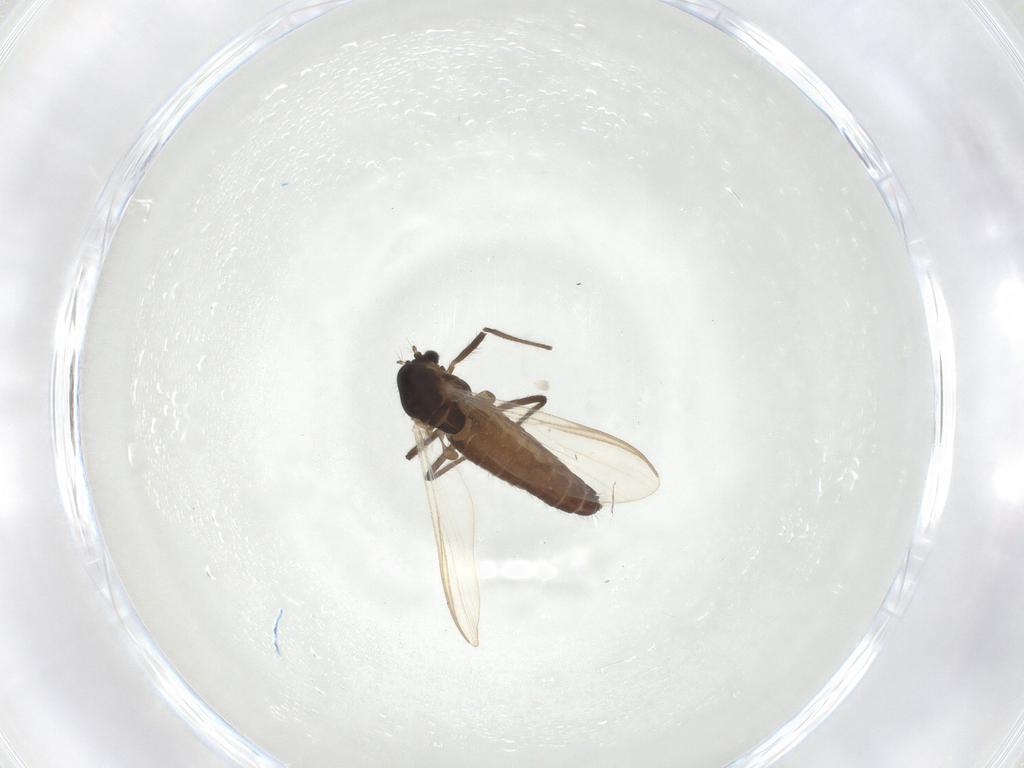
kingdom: Animalia
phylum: Arthropoda
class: Insecta
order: Diptera
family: Chironomidae
